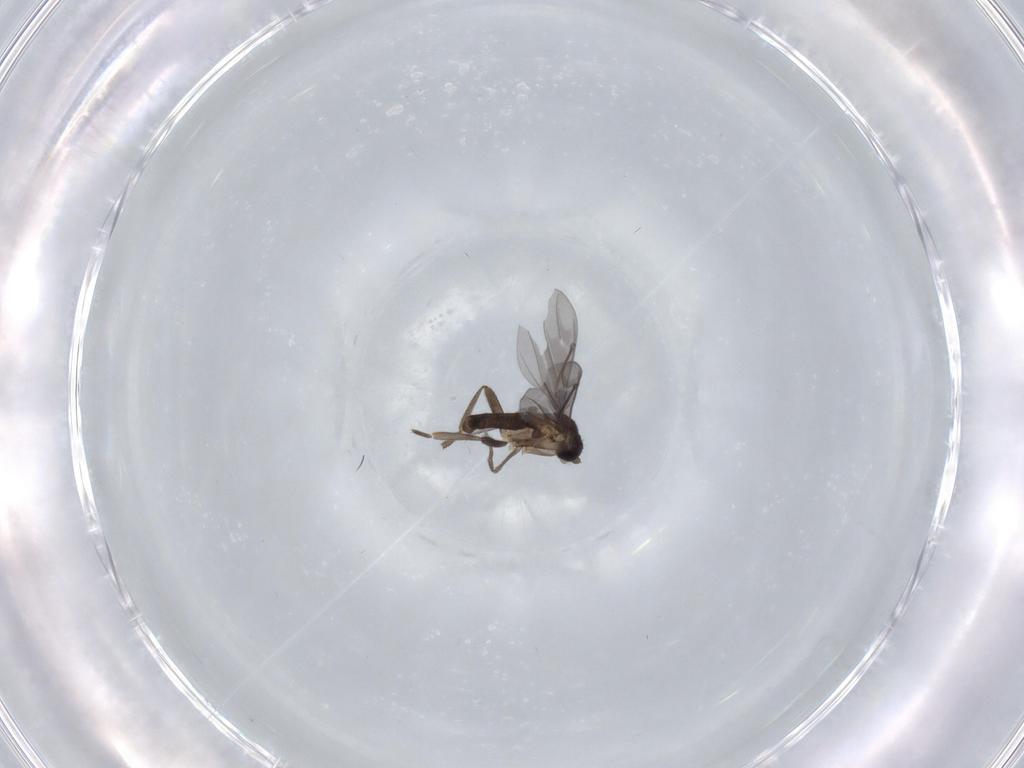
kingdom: Animalia
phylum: Arthropoda
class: Insecta
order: Diptera
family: Phoridae
